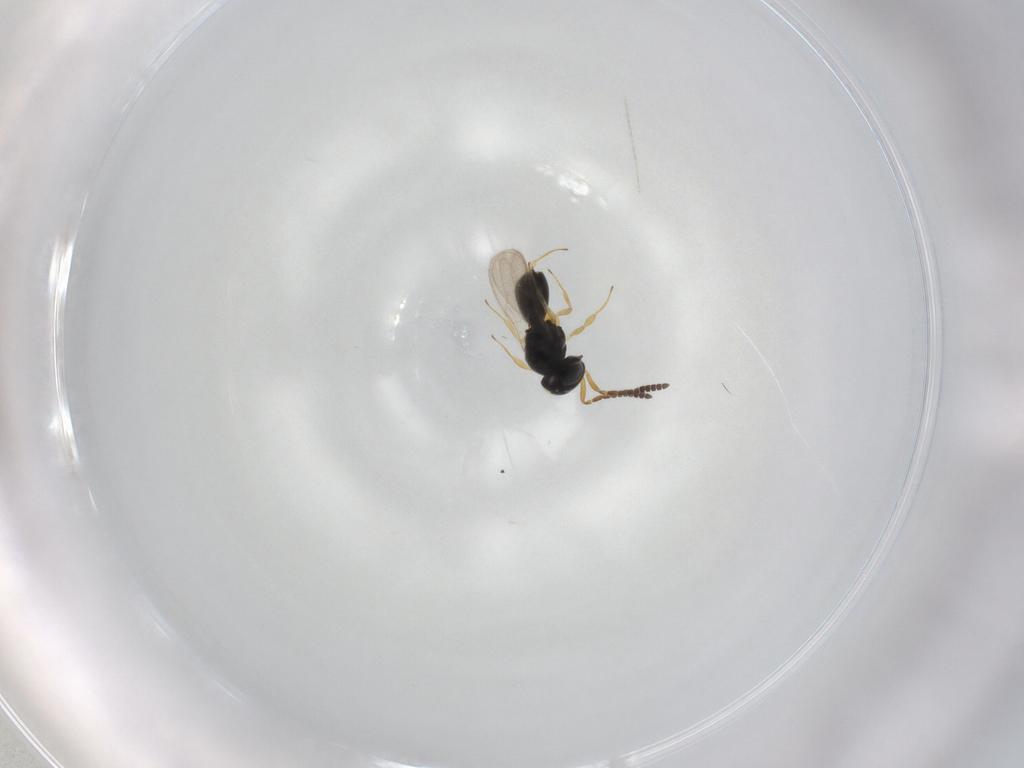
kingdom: Animalia
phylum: Arthropoda
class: Insecta
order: Hymenoptera
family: Scelionidae
